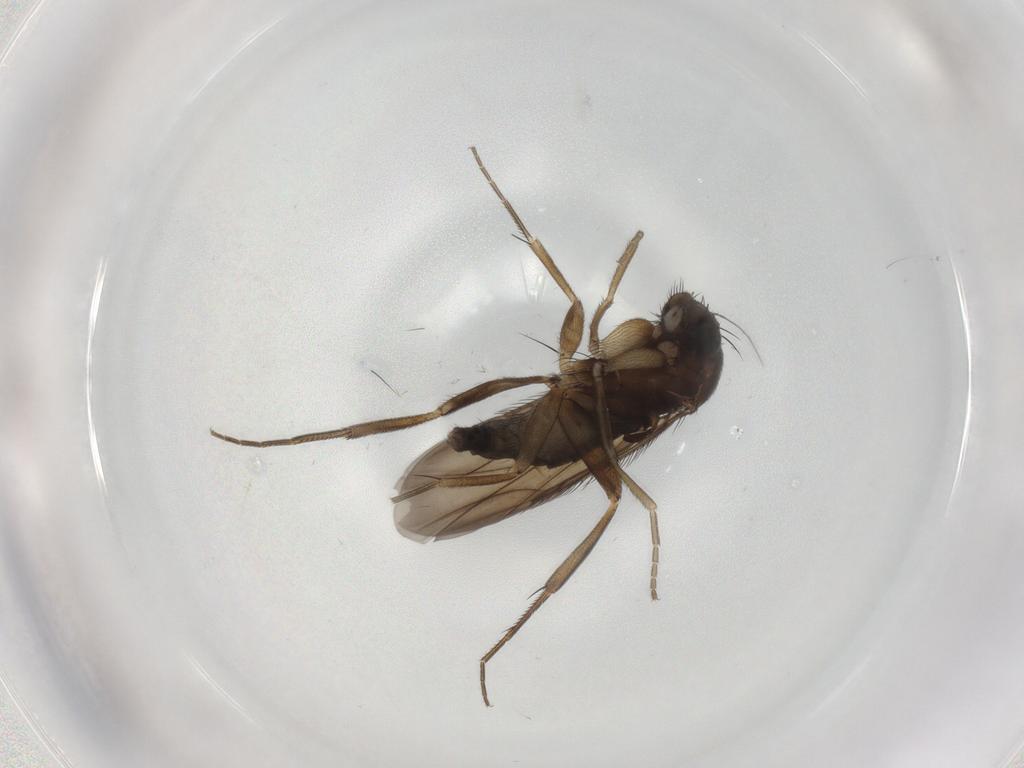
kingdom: Animalia
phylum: Arthropoda
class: Insecta
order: Diptera
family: Phoridae
